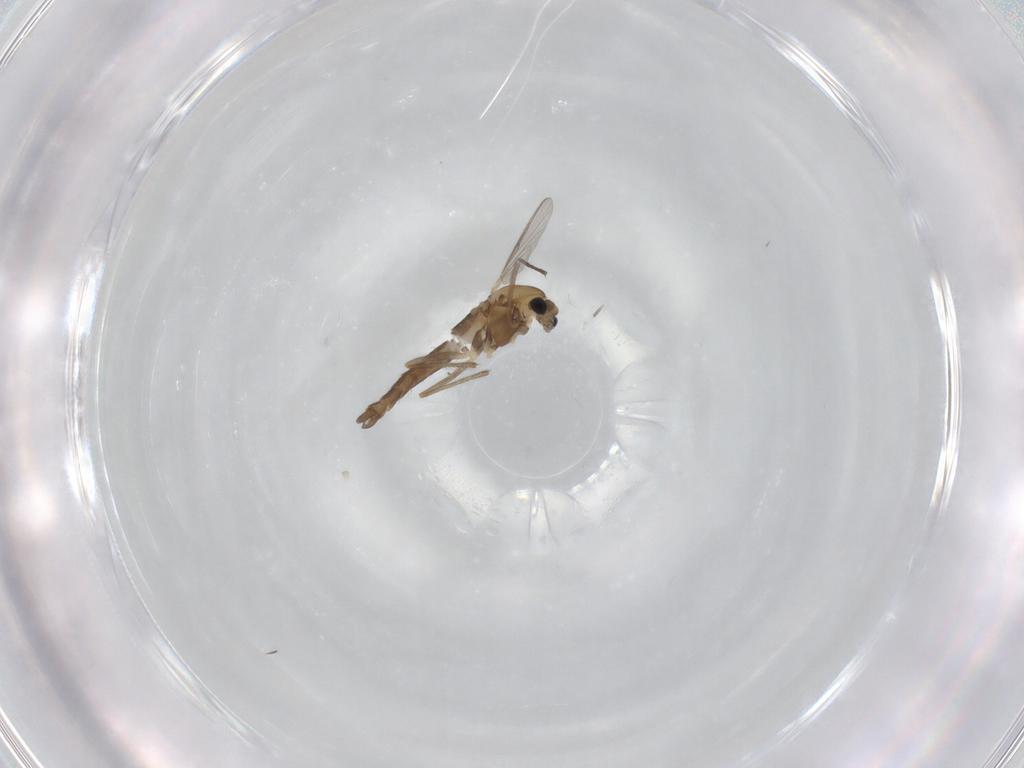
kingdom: Animalia
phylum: Arthropoda
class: Insecta
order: Diptera
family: Chironomidae
